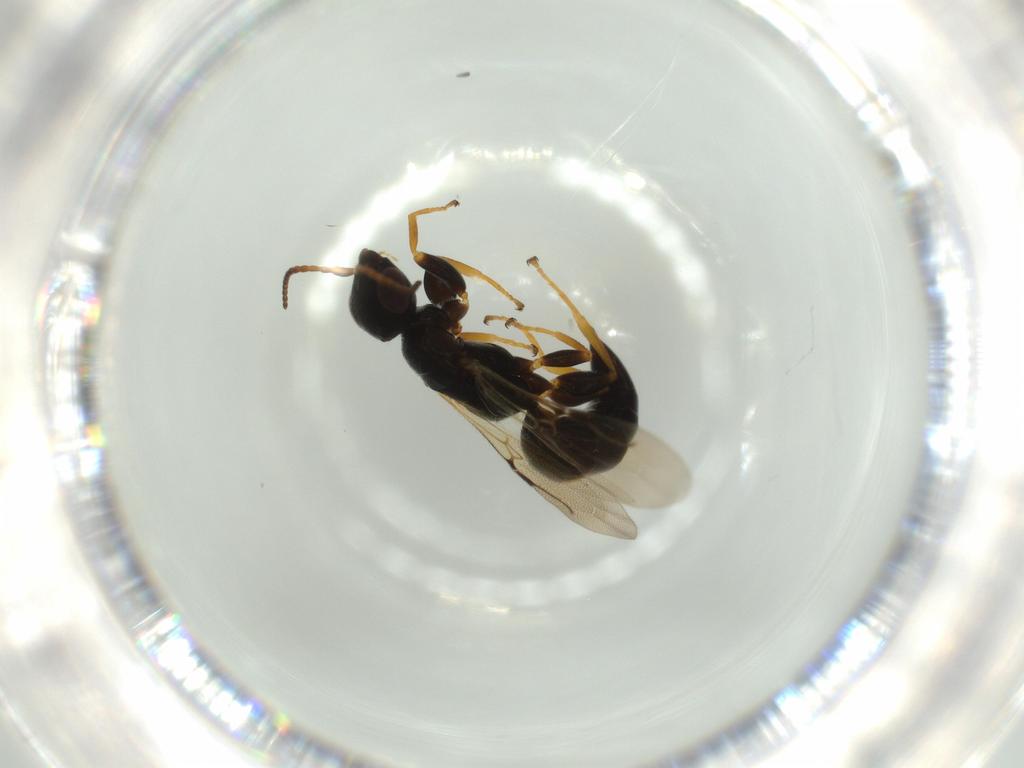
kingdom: Animalia
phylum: Arthropoda
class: Insecta
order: Hymenoptera
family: Bethylidae
